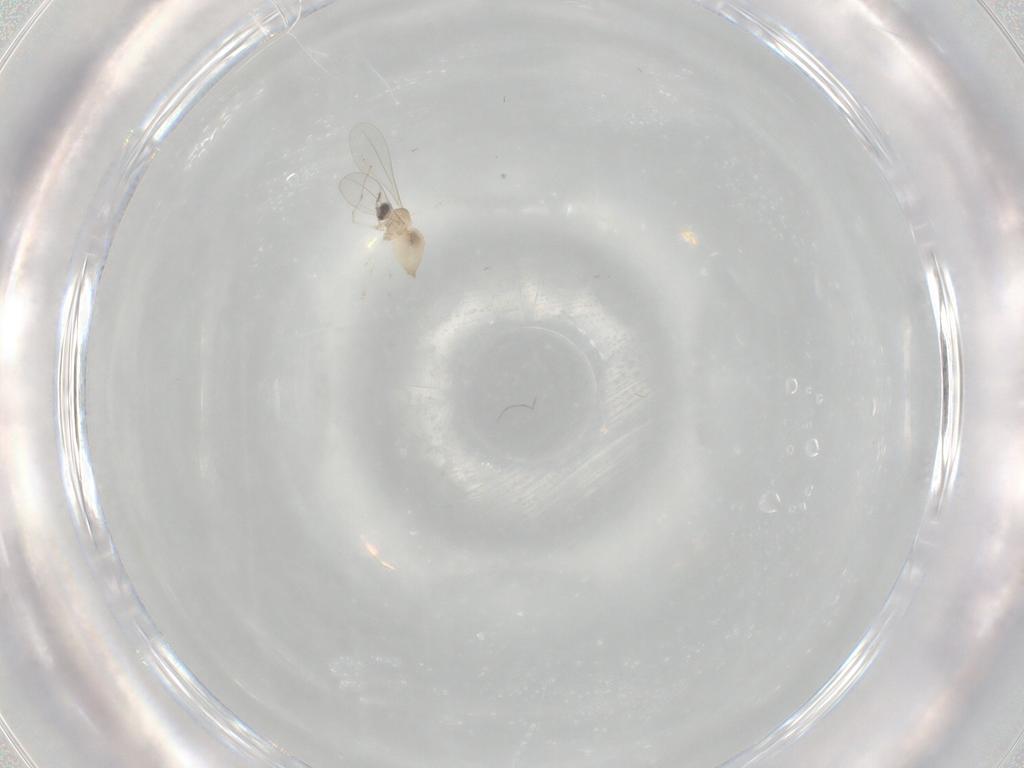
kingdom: Animalia
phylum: Arthropoda
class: Insecta
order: Diptera
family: Cecidomyiidae
